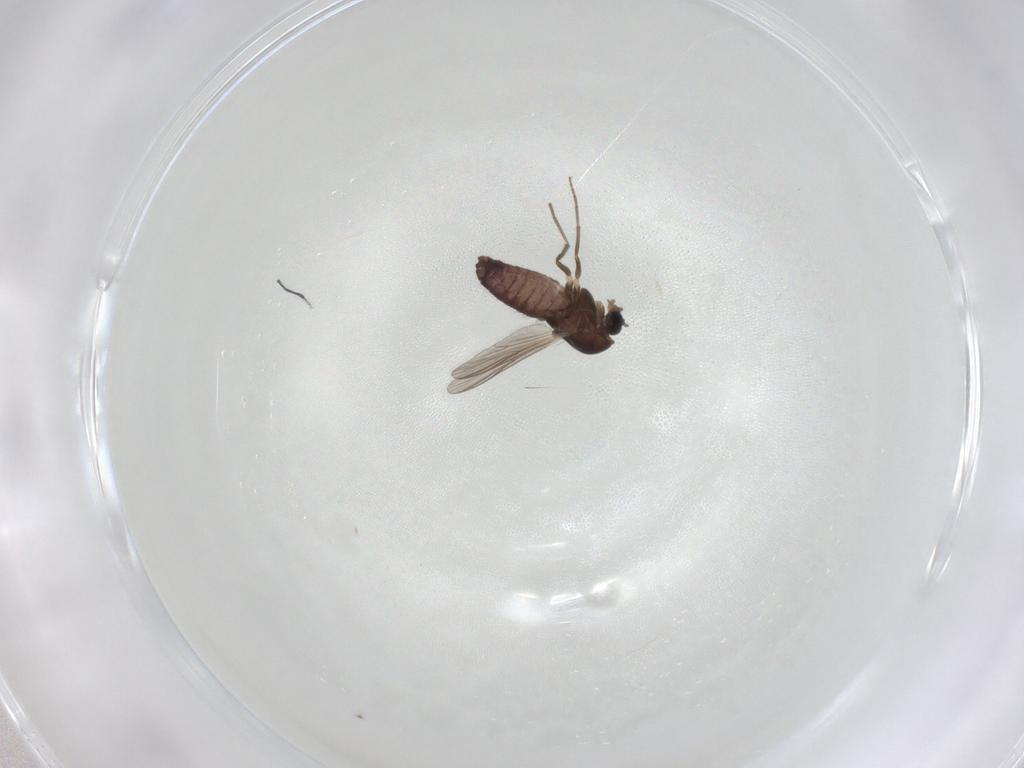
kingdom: Animalia
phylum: Arthropoda
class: Insecta
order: Diptera
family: Chironomidae
